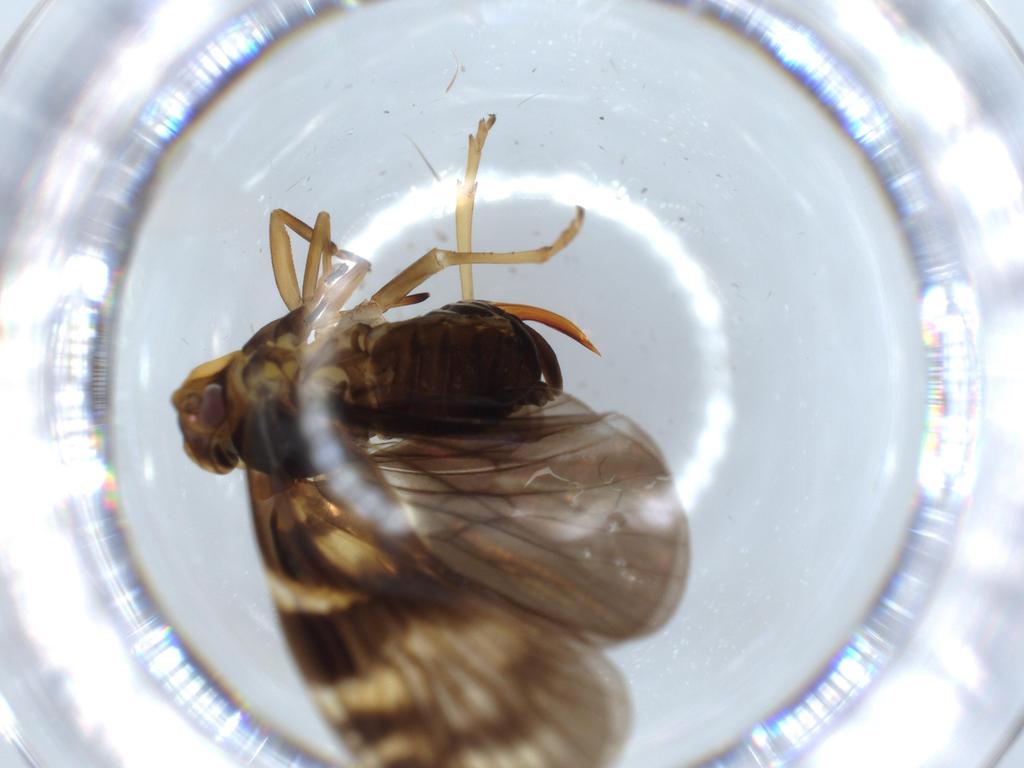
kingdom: Animalia
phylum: Arthropoda
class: Insecta
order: Hemiptera
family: Cixiidae
